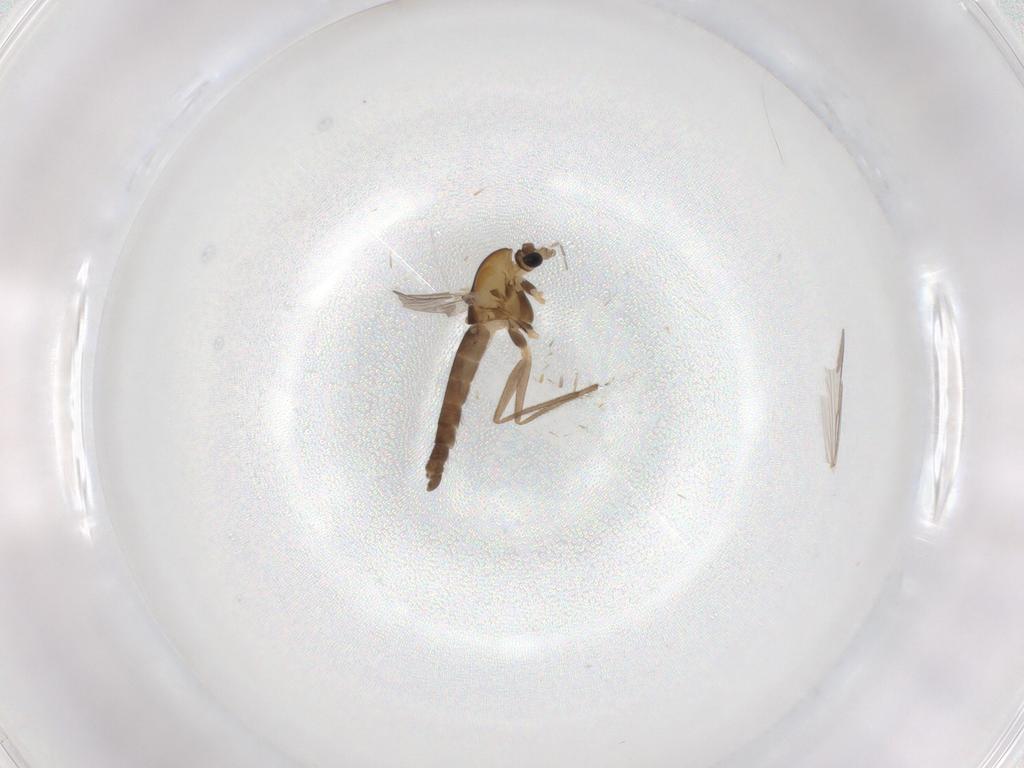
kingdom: Animalia
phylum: Arthropoda
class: Insecta
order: Diptera
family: Chironomidae
